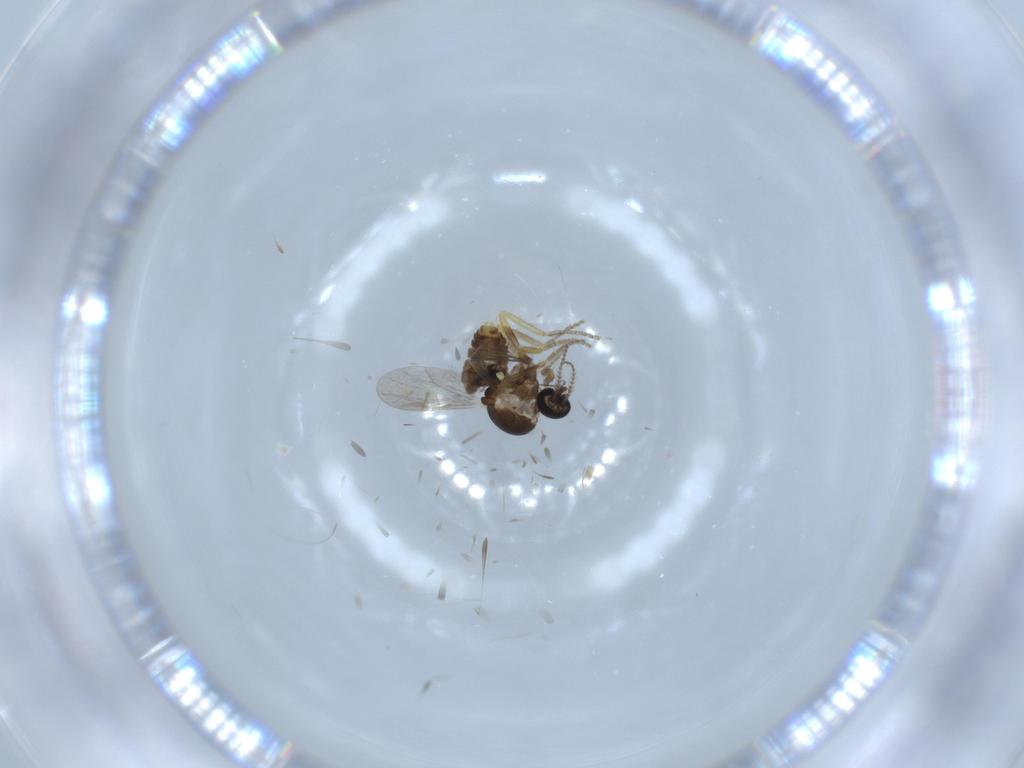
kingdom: Animalia
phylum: Arthropoda
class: Insecta
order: Diptera
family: Ceratopogonidae
